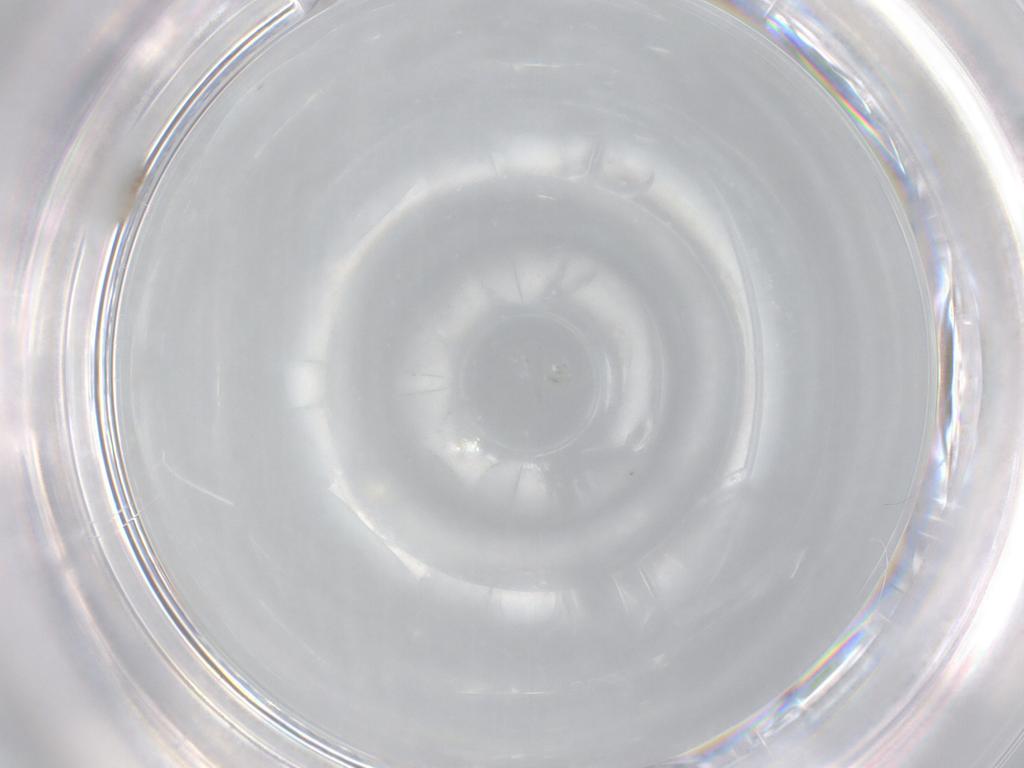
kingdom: Animalia
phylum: Arthropoda
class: Insecta
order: Diptera
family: Cecidomyiidae
